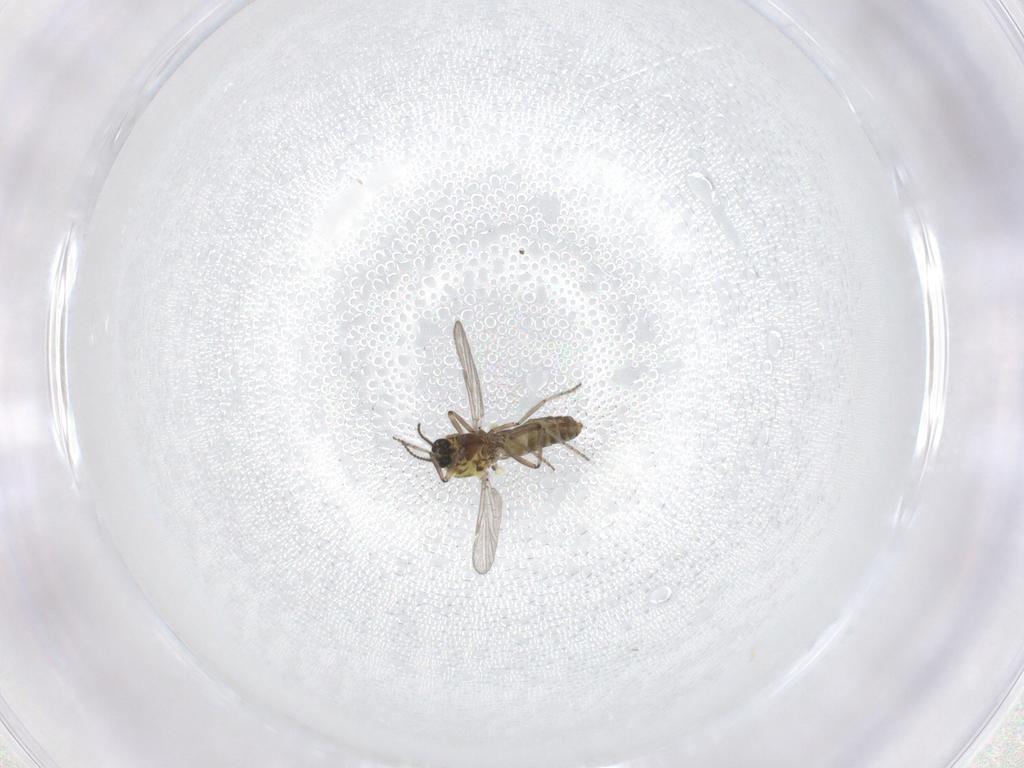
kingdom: Animalia
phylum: Arthropoda
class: Insecta
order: Diptera
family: Ceratopogonidae
